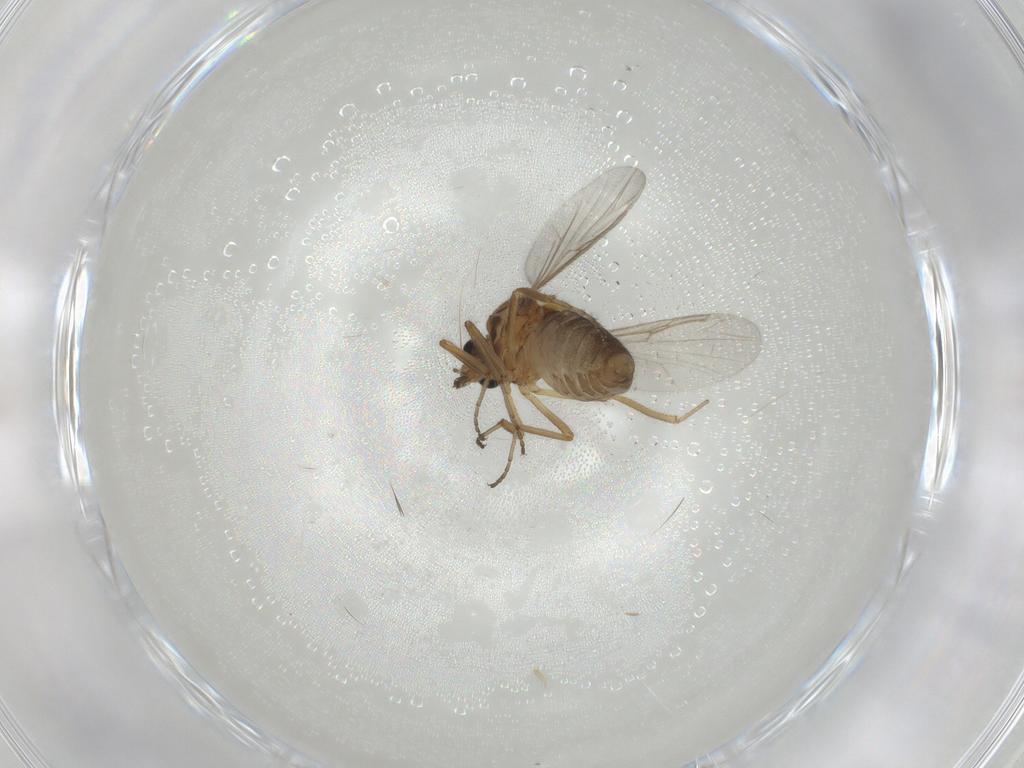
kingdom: Animalia
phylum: Arthropoda
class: Insecta
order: Diptera
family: Ceratopogonidae
